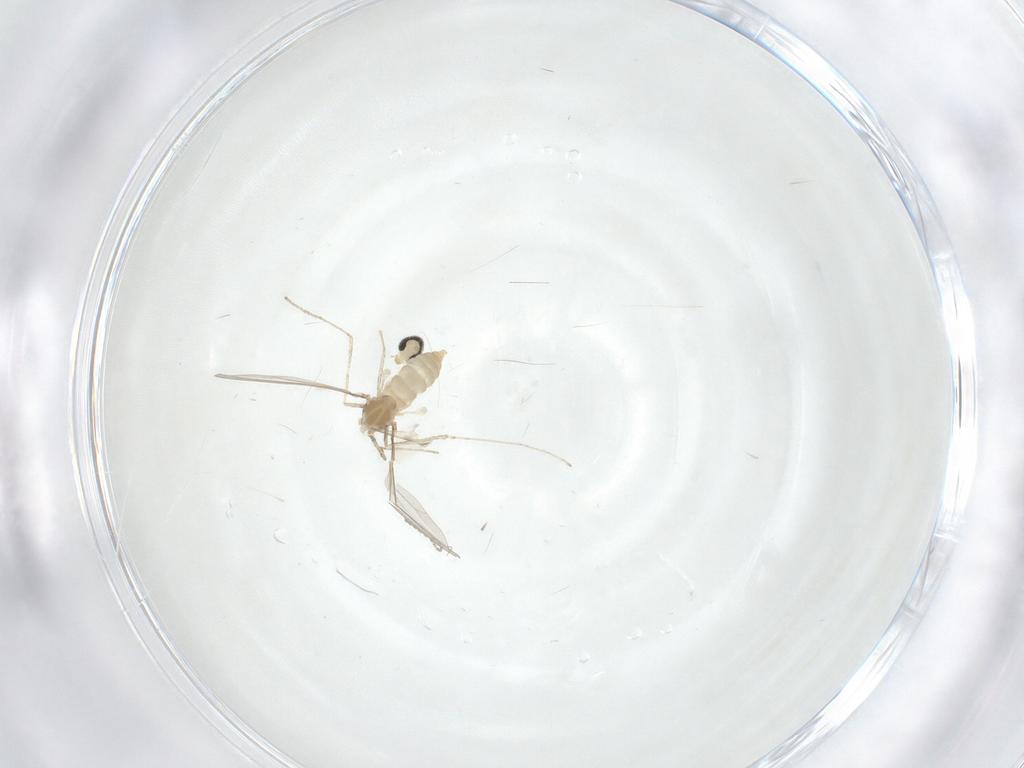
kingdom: Animalia
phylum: Arthropoda
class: Insecta
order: Diptera
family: Cecidomyiidae
